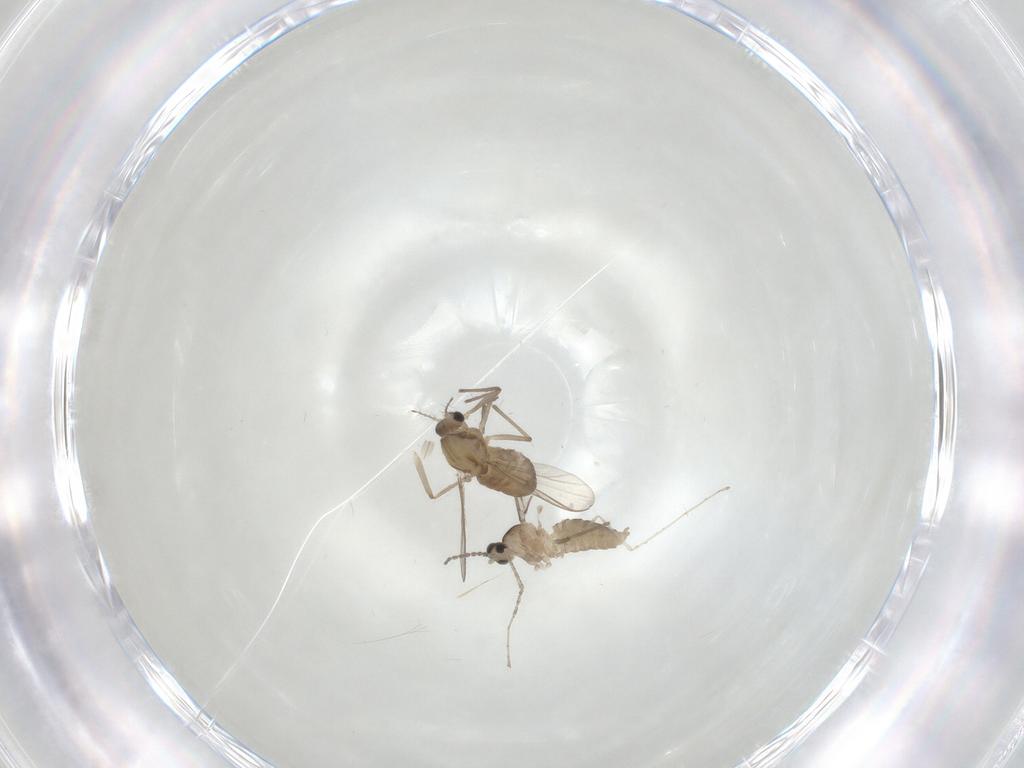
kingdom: Animalia
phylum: Arthropoda
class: Insecta
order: Diptera
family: Chironomidae
